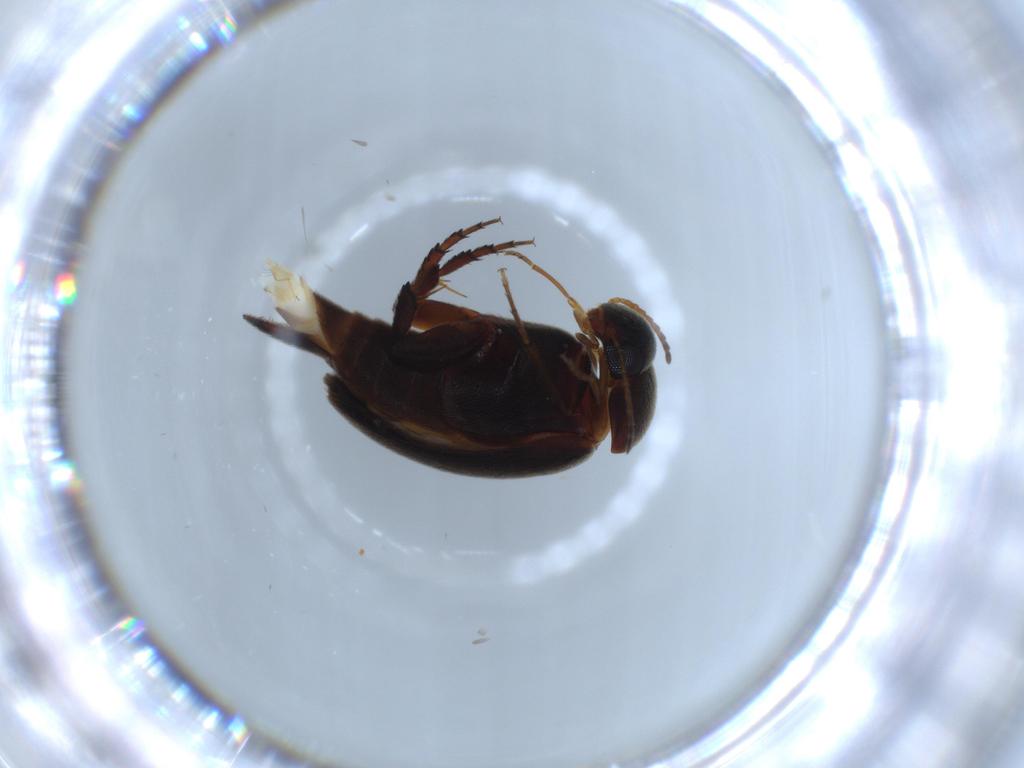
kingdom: Animalia
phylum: Arthropoda
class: Insecta
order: Coleoptera
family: Mordellidae
